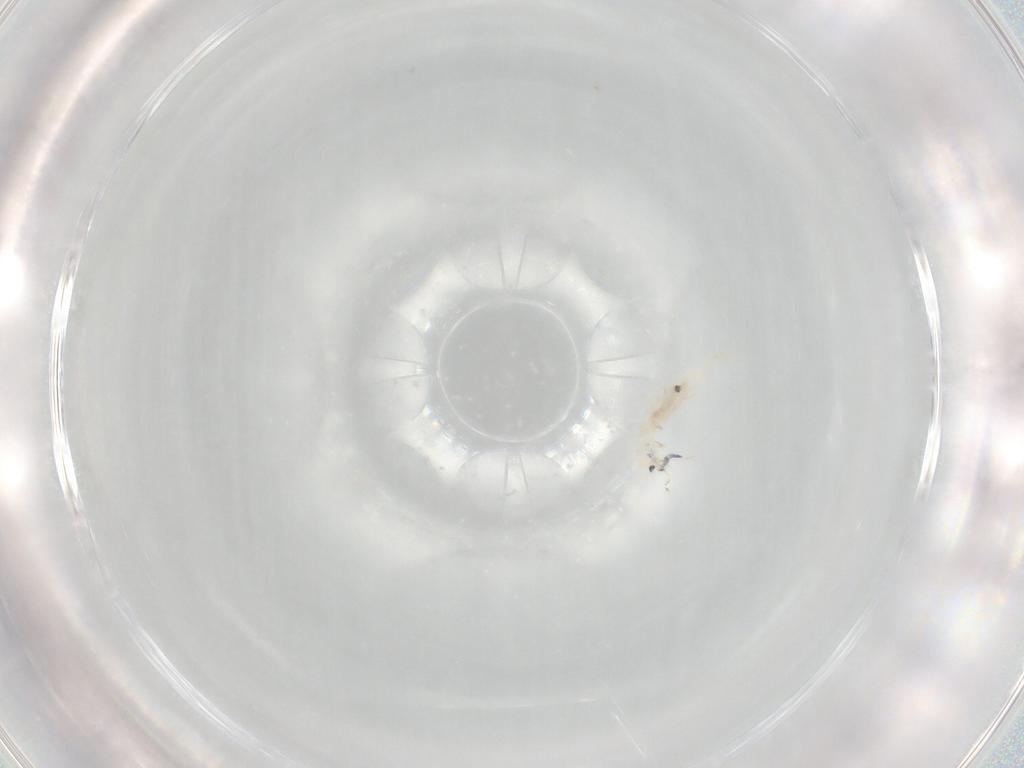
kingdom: Animalia
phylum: Arthropoda
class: Collembola
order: Entomobryomorpha
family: Entomobryidae
